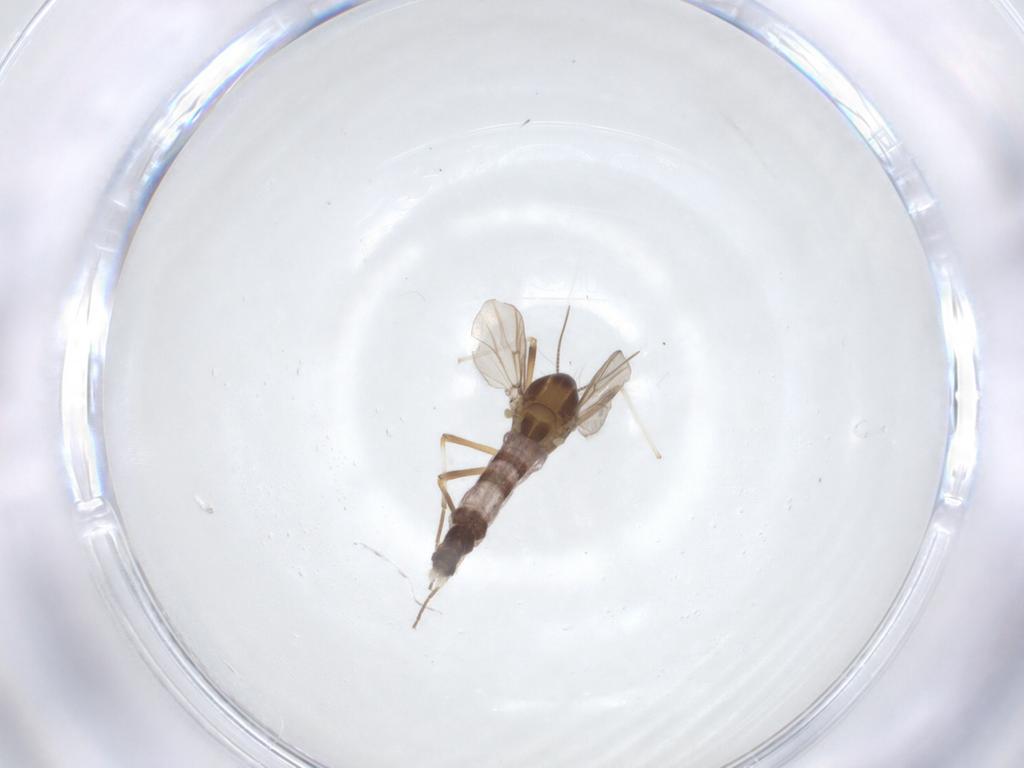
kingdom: Animalia
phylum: Arthropoda
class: Insecta
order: Diptera
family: Chironomidae
